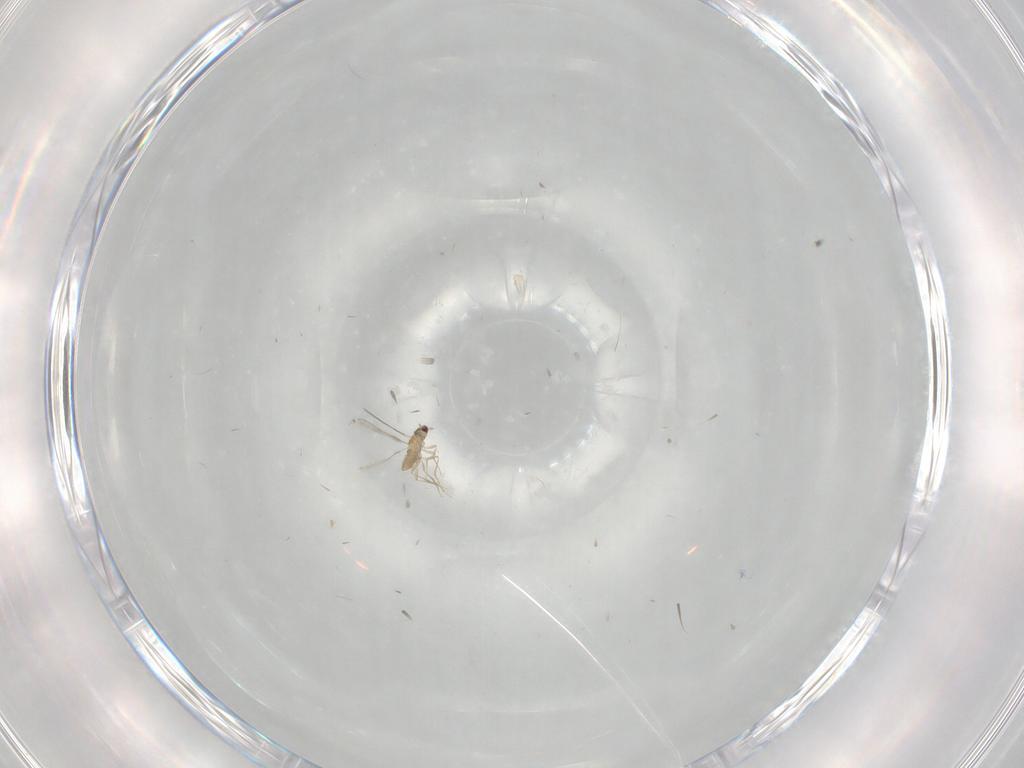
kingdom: Animalia
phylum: Arthropoda
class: Insecta
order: Hymenoptera
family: Mymaridae
